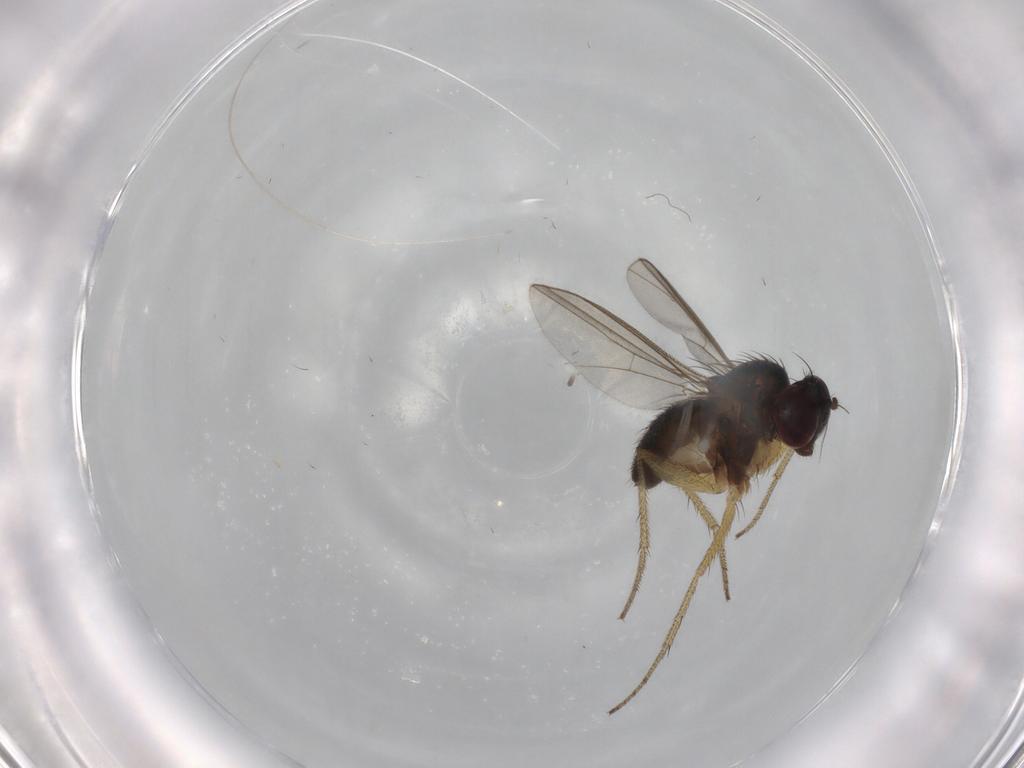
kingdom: Animalia
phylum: Arthropoda
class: Insecta
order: Diptera
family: Dolichopodidae
